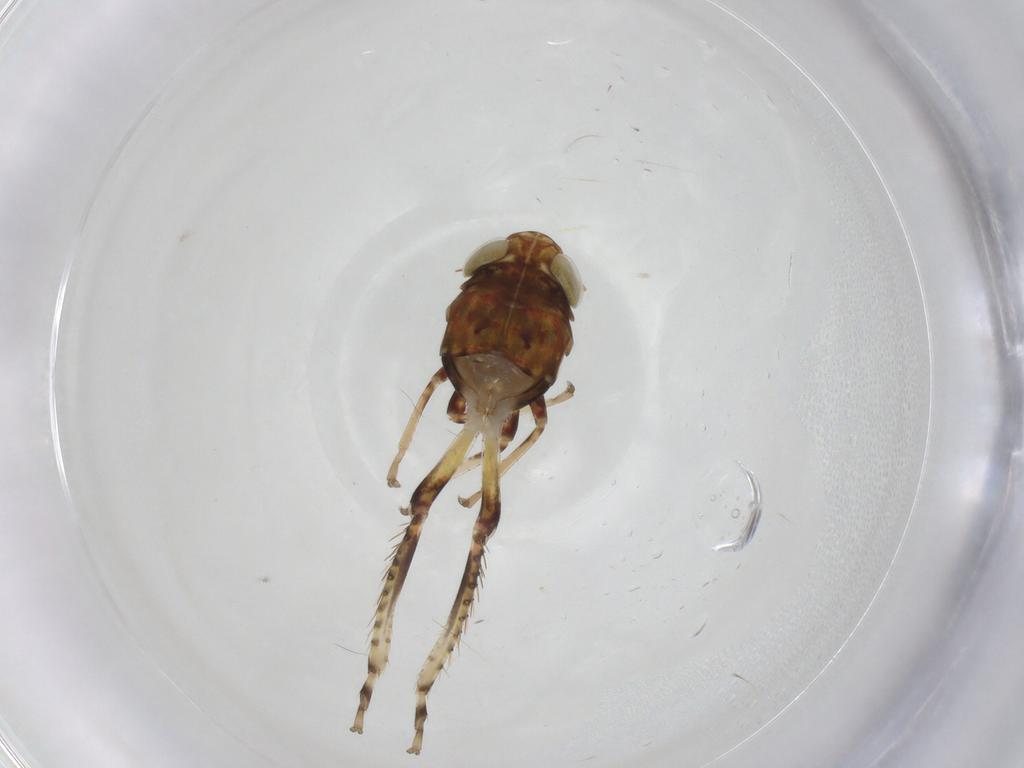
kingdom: Animalia
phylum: Arthropoda
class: Insecta
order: Hemiptera
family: Cicadellidae
